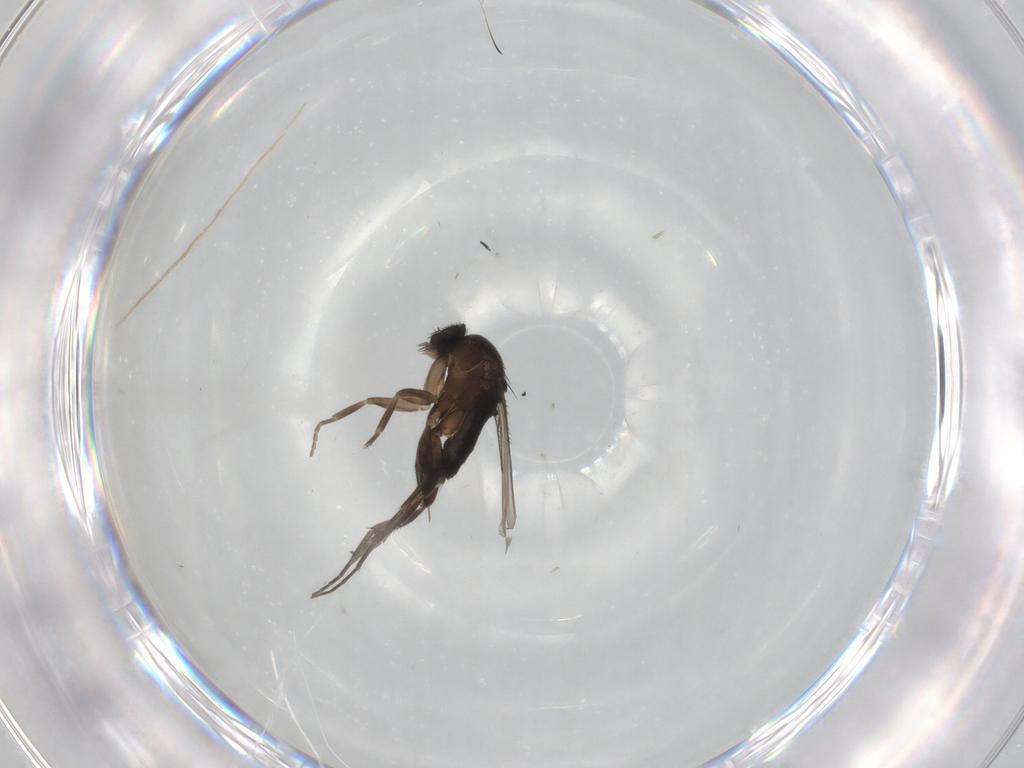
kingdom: Animalia
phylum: Arthropoda
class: Insecta
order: Diptera
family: Phoridae
